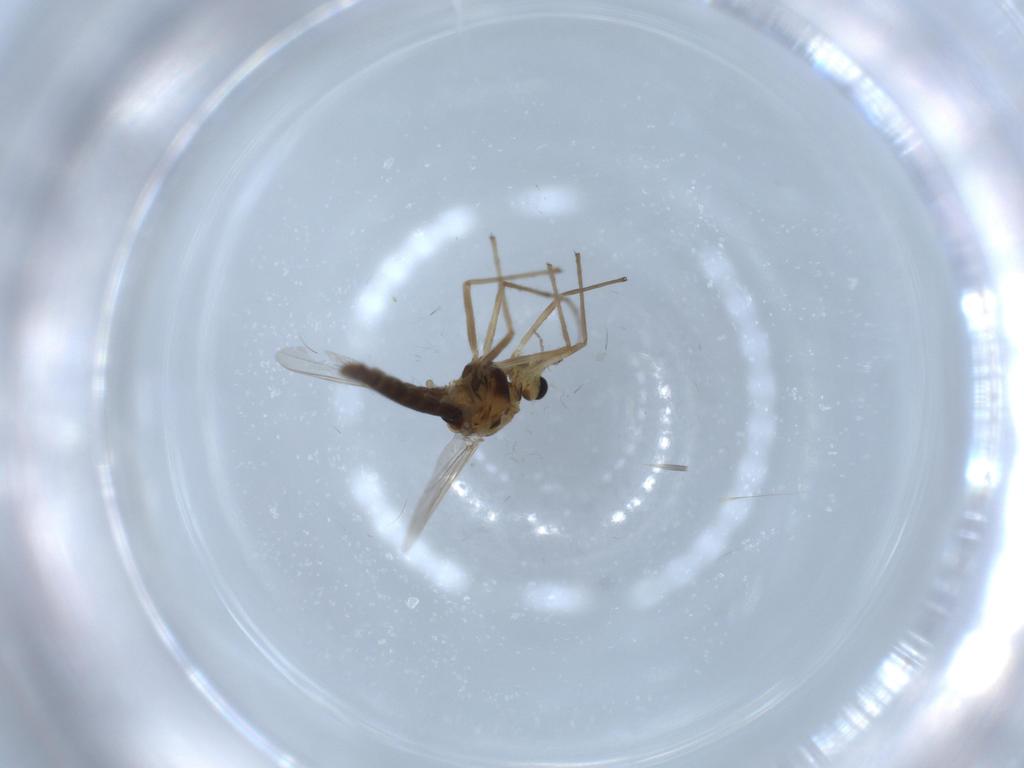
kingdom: Animalia
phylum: Arthropoda
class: Insecta
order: Diptera
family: Chironomidae
